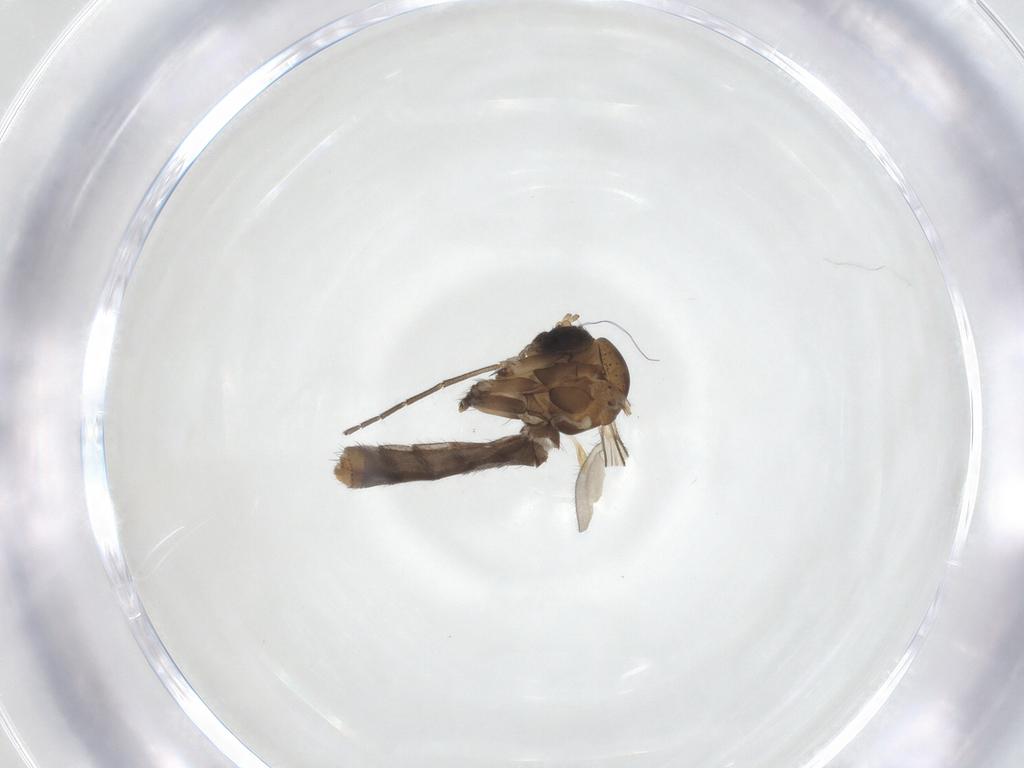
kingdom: Animalia
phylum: Arthropoda
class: Insecta
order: Diptera
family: Mycetophilidae
